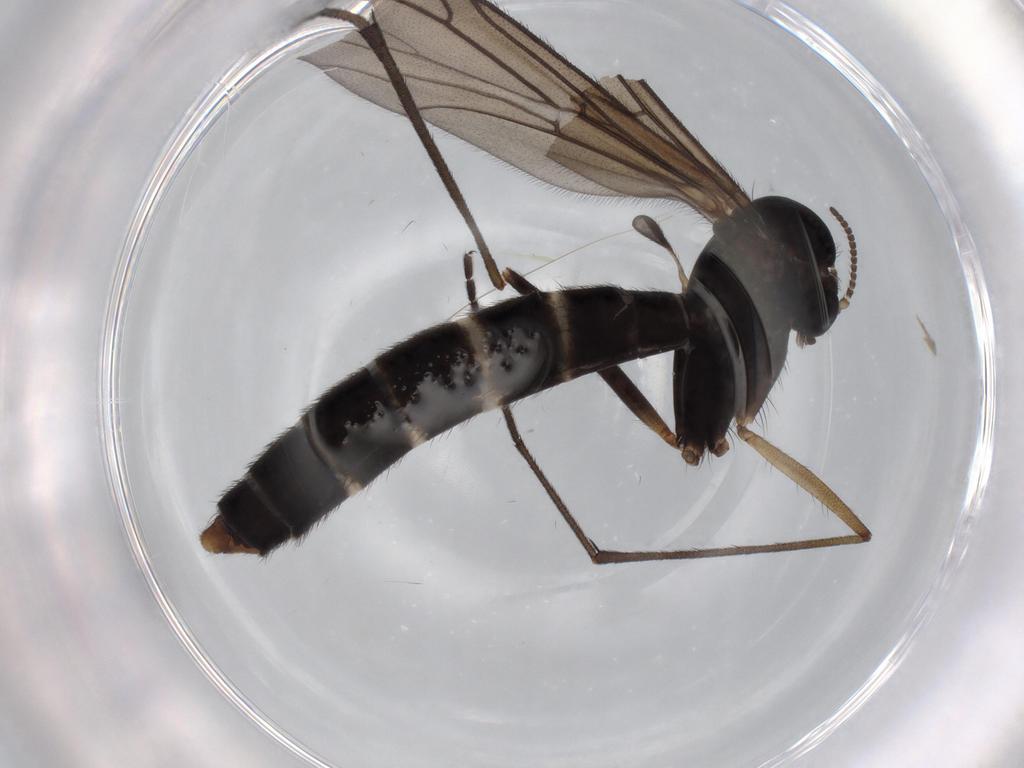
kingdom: Animalia
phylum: Arthropoda
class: Insecta
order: Diptera
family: Ditomyiidae
